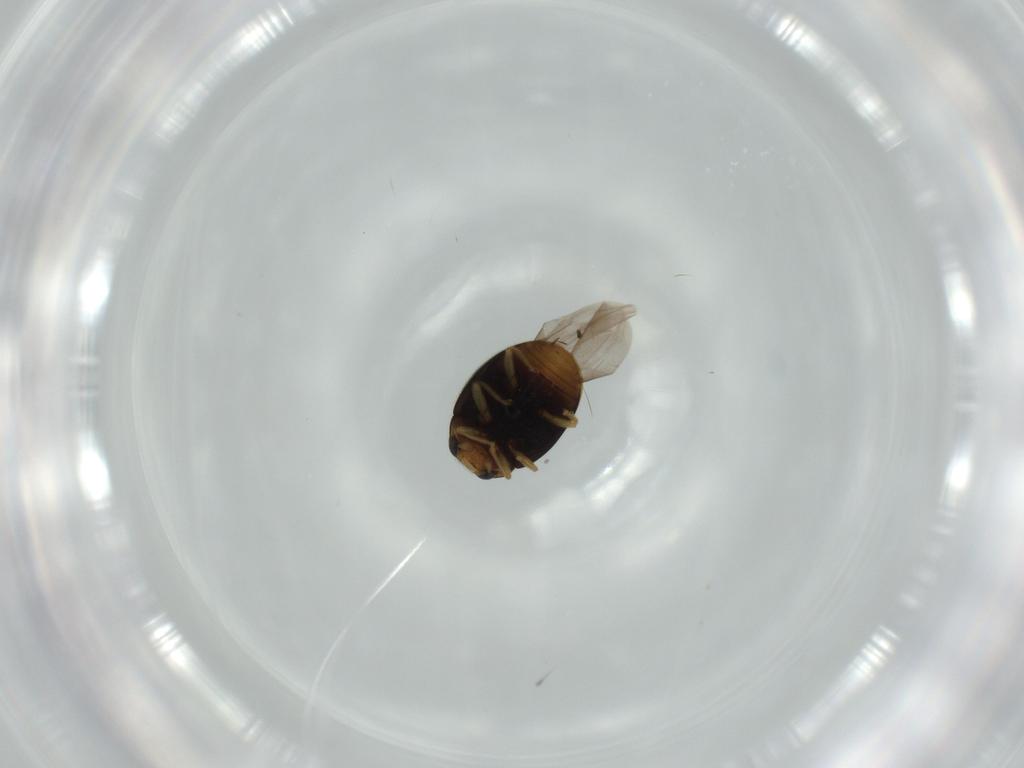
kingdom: Animalia
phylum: Arthropoda
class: Insecta
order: Coleoptera
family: Coccinellidae
